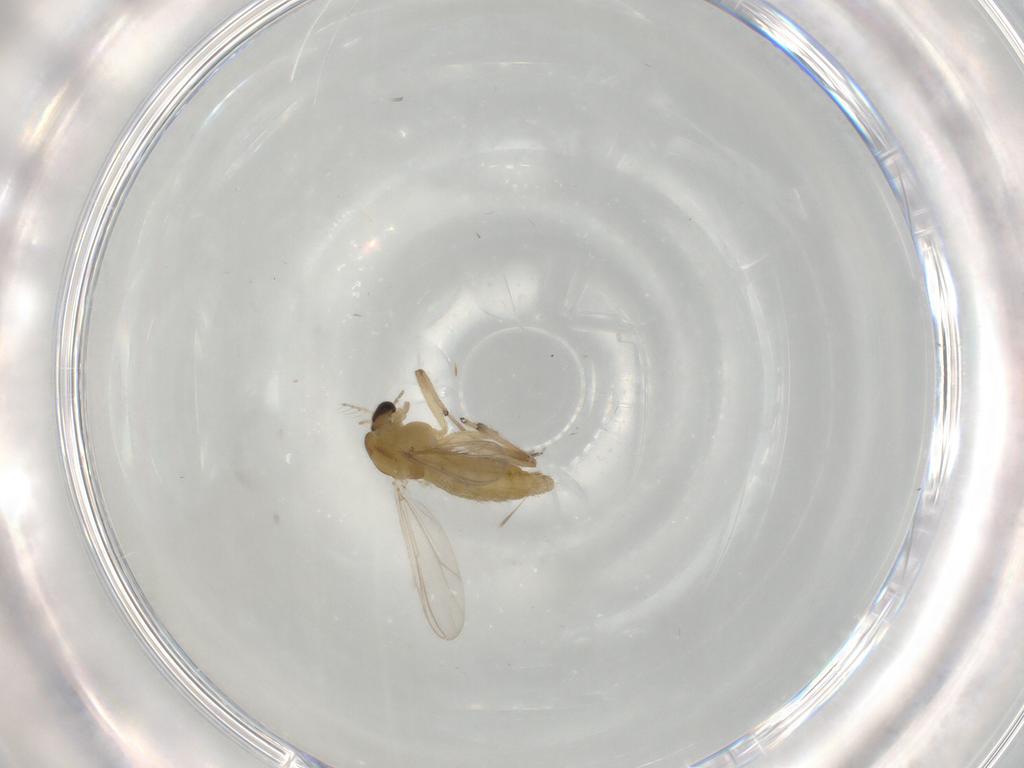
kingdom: Animalia
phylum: Arthropoda
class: Insecta
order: Diptera
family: Chironomidae
